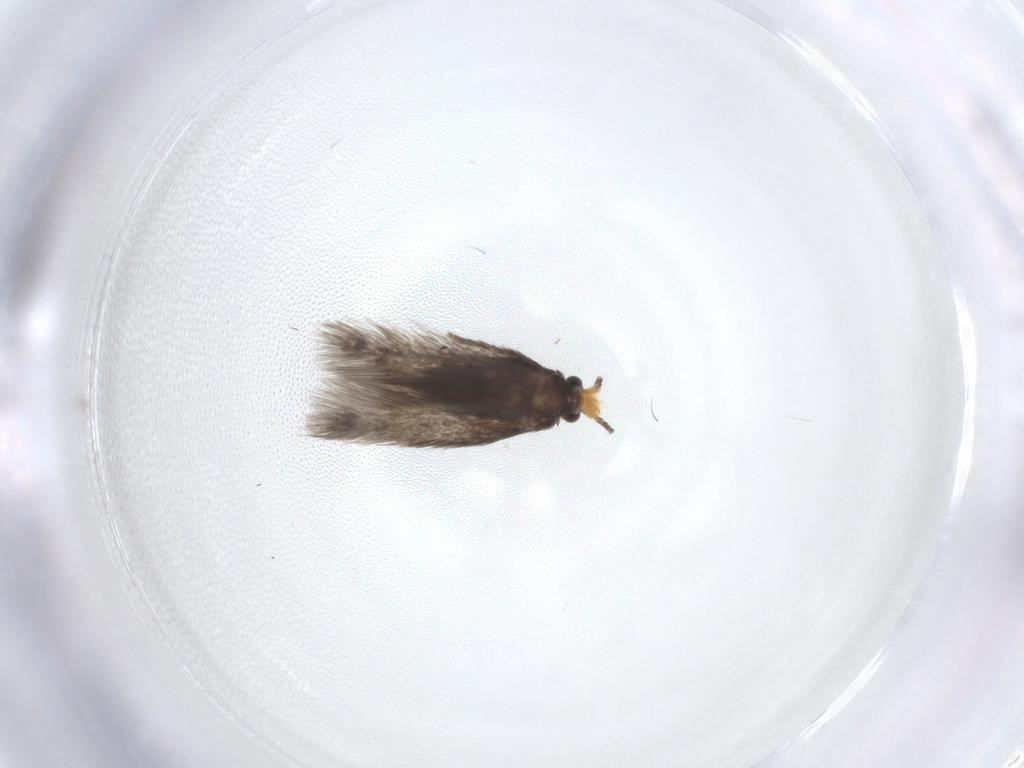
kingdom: Animalia
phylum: Arthropoda
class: Insecta
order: Lepidoptera
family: Nepticulidae
